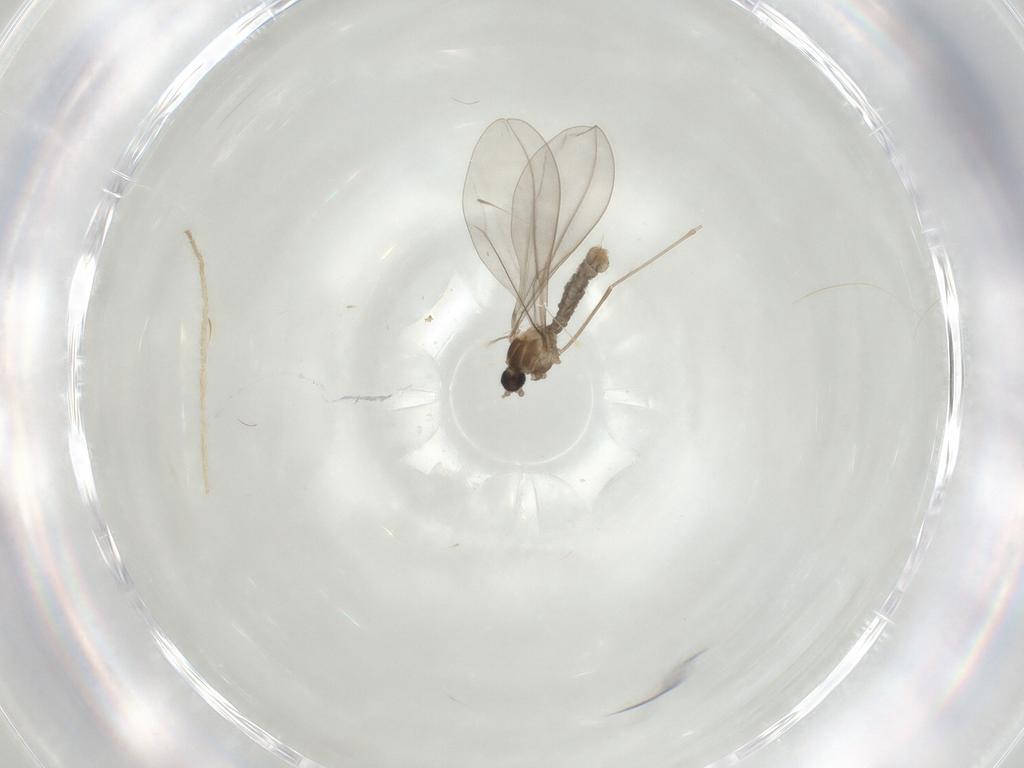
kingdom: Animalia
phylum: Arthropoda
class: Insecta
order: Diptera
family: Cecidomyiidae
